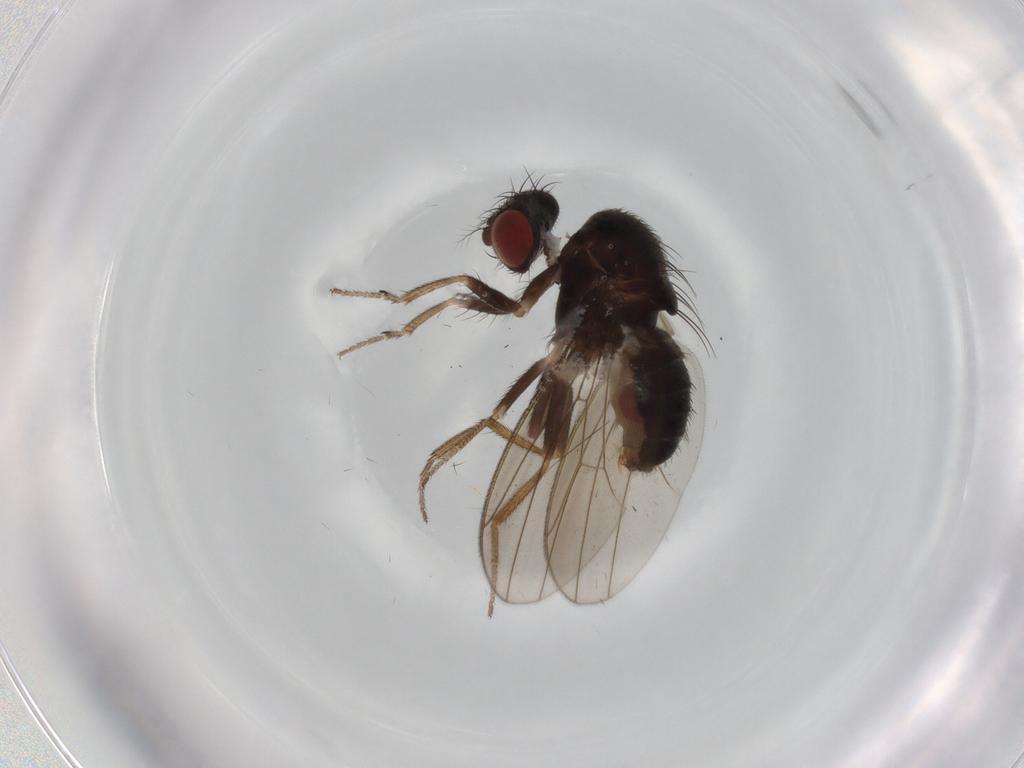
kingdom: Animalia
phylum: Arthropoda
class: Insecta
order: Diptera
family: Drosophilidae
